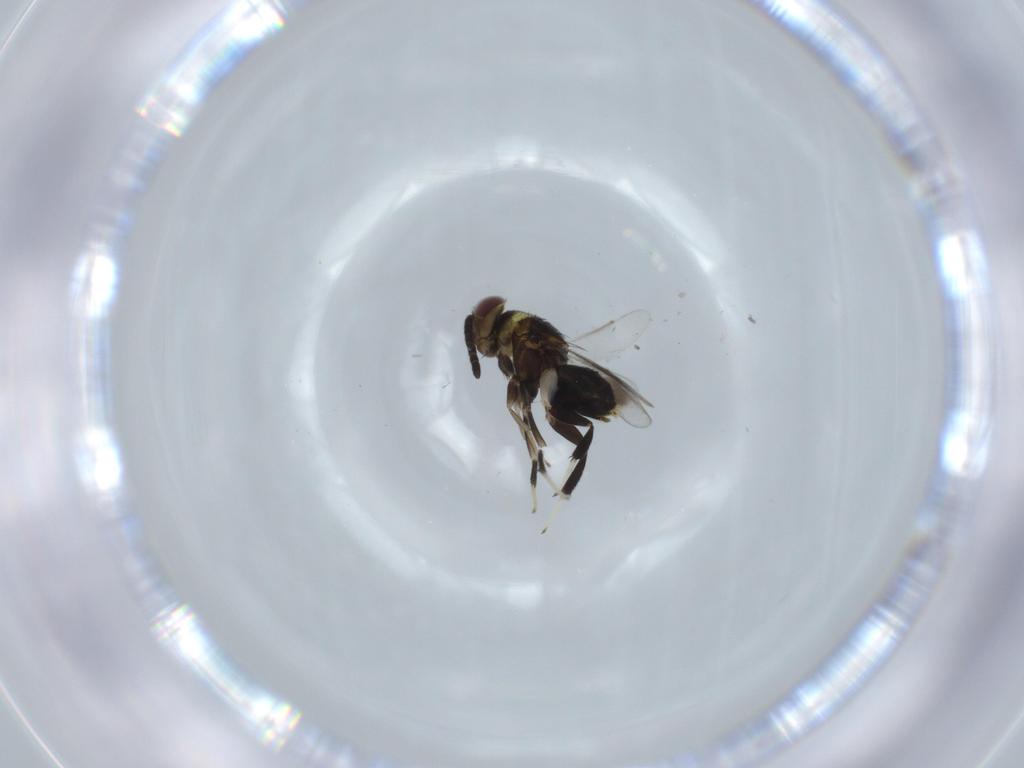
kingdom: Animalia
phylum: Arthropoda
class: Insecta
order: Hymenoptera
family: Aphelinidae
